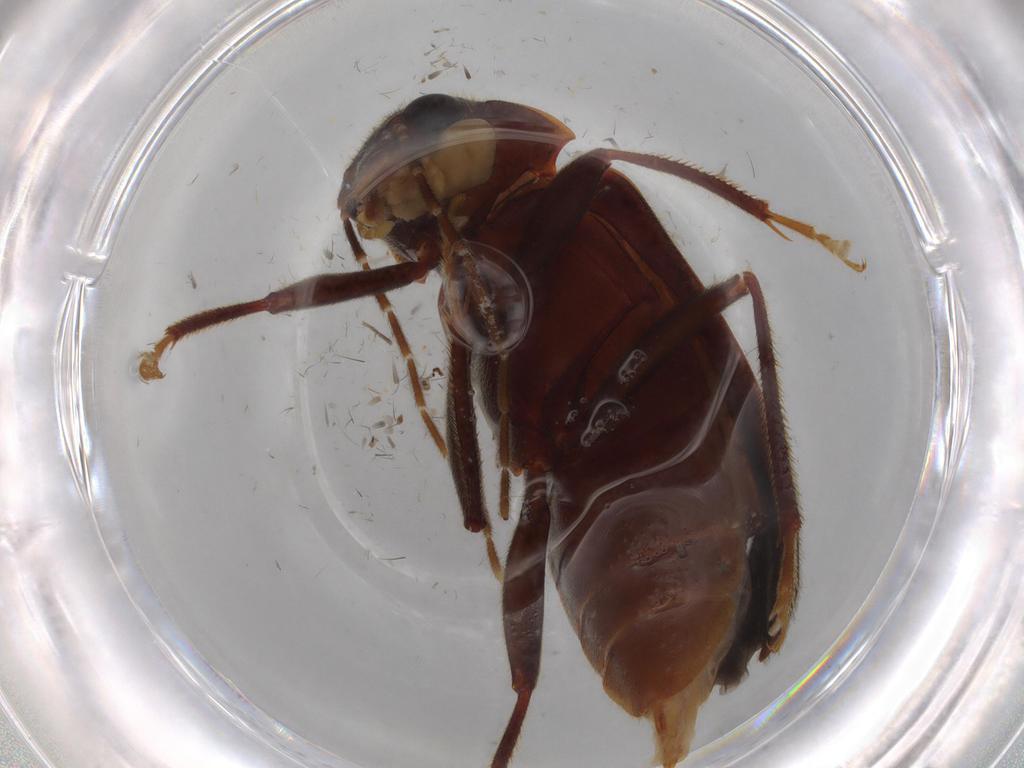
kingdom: Animalia
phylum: Arthropoda
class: Insecta
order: Coleoptera
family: Ptilodactylidae
